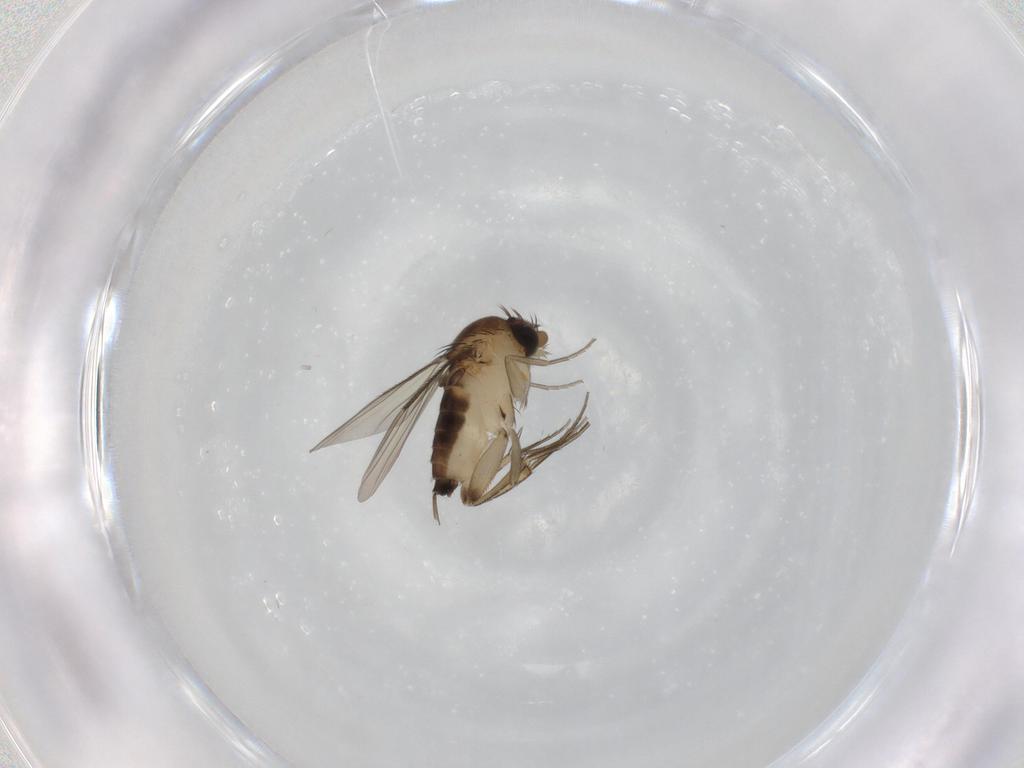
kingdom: Animalia
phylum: Arthropoda
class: Insecta
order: Diptera
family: Phoridae
